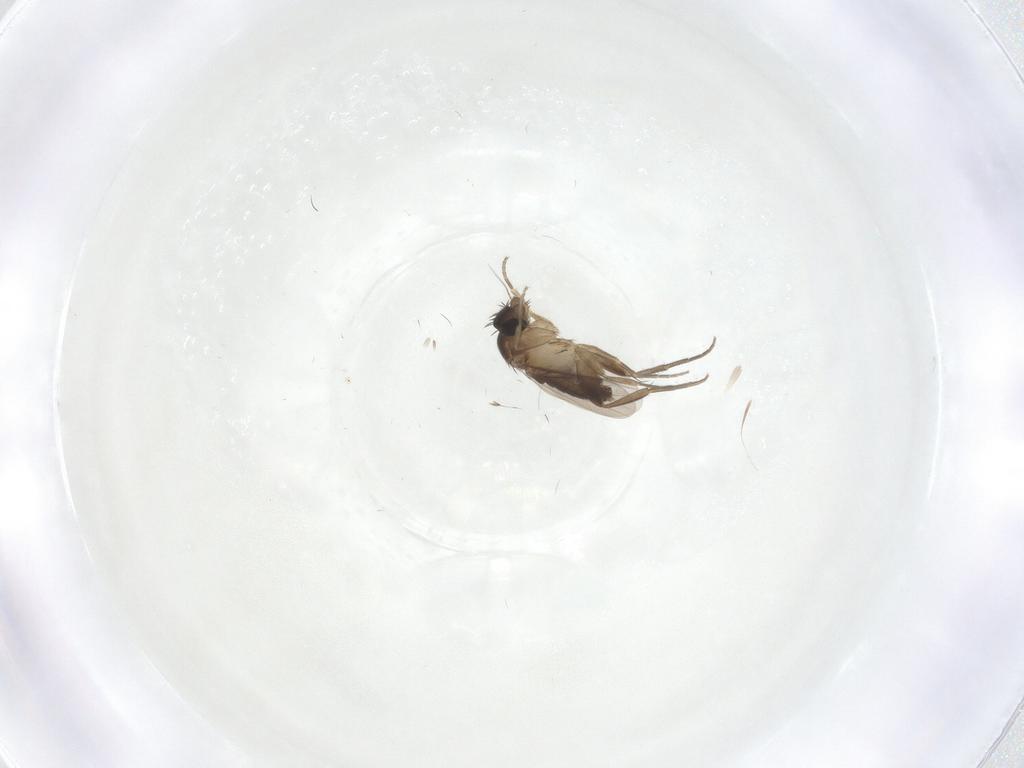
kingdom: Animalia
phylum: Arthropoda
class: Insecta
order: Diptera
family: Phoridae
